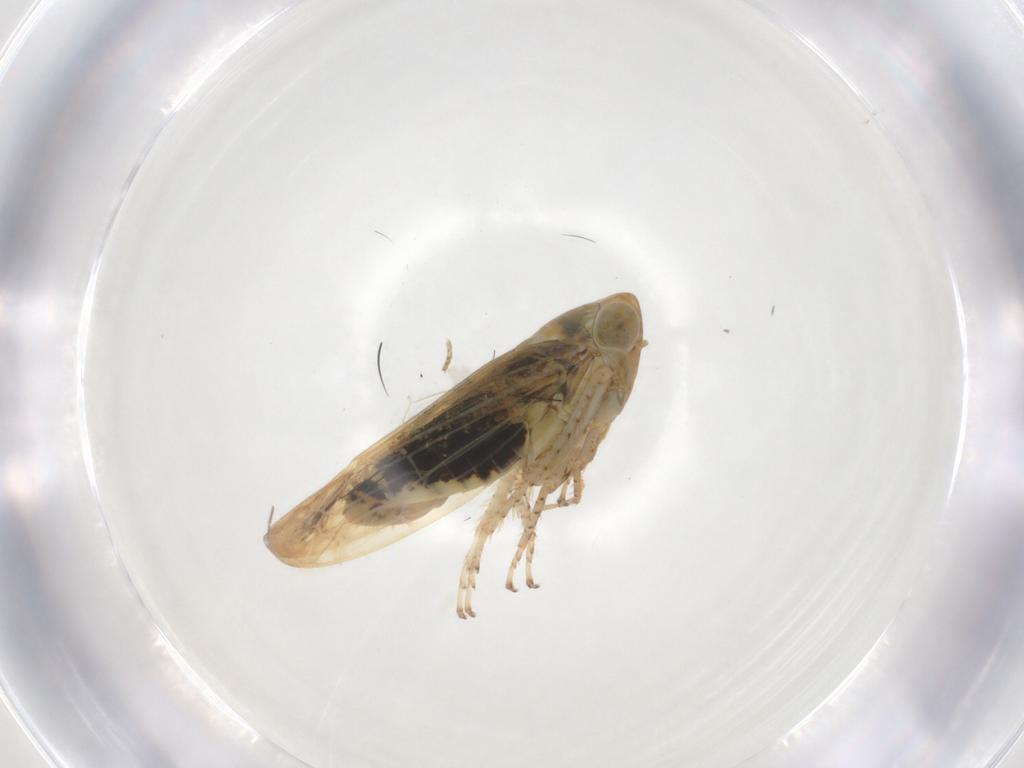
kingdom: Animalia
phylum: Arthropoda
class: Insecta
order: Hemiptera
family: Cicadellidae
